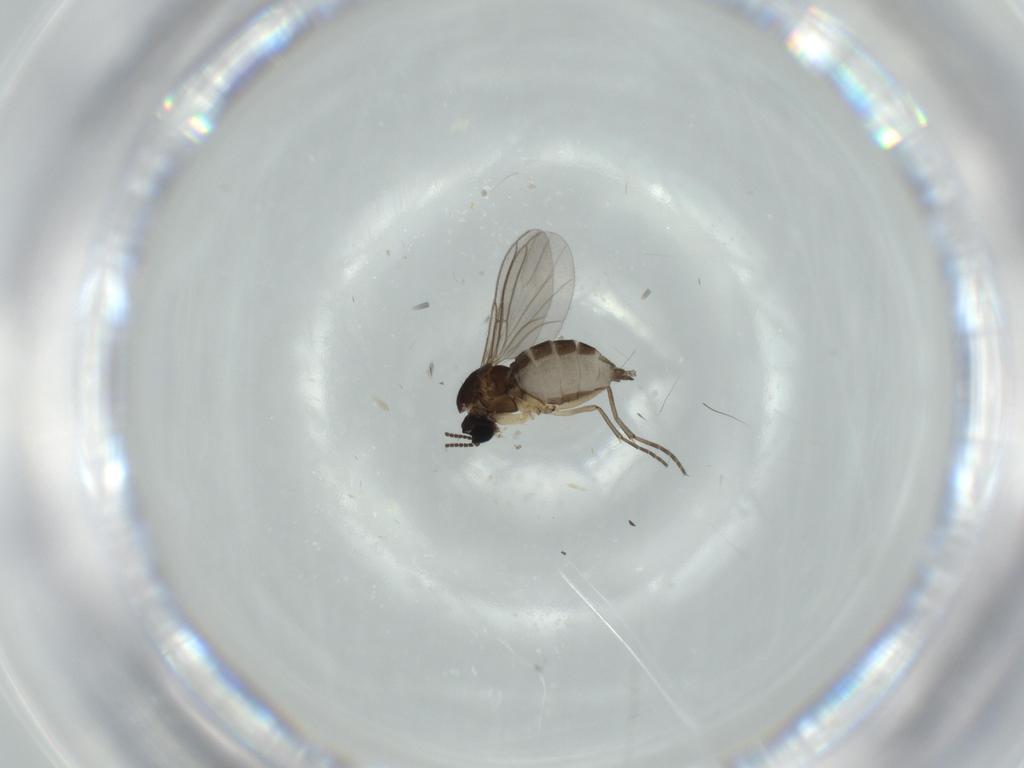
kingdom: Animalia
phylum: Arthropoda
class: Insecta
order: Diptera
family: Sciaridae
